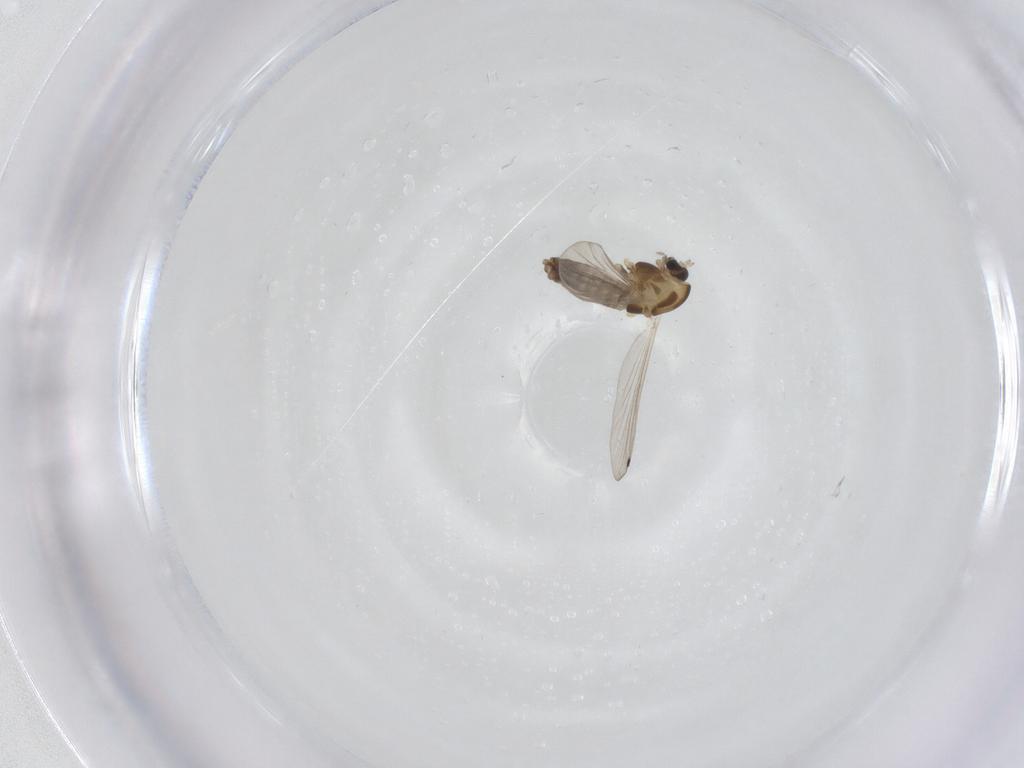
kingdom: Animalia
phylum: Arthropoda
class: Insecta
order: Diptera
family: Chironomidae
